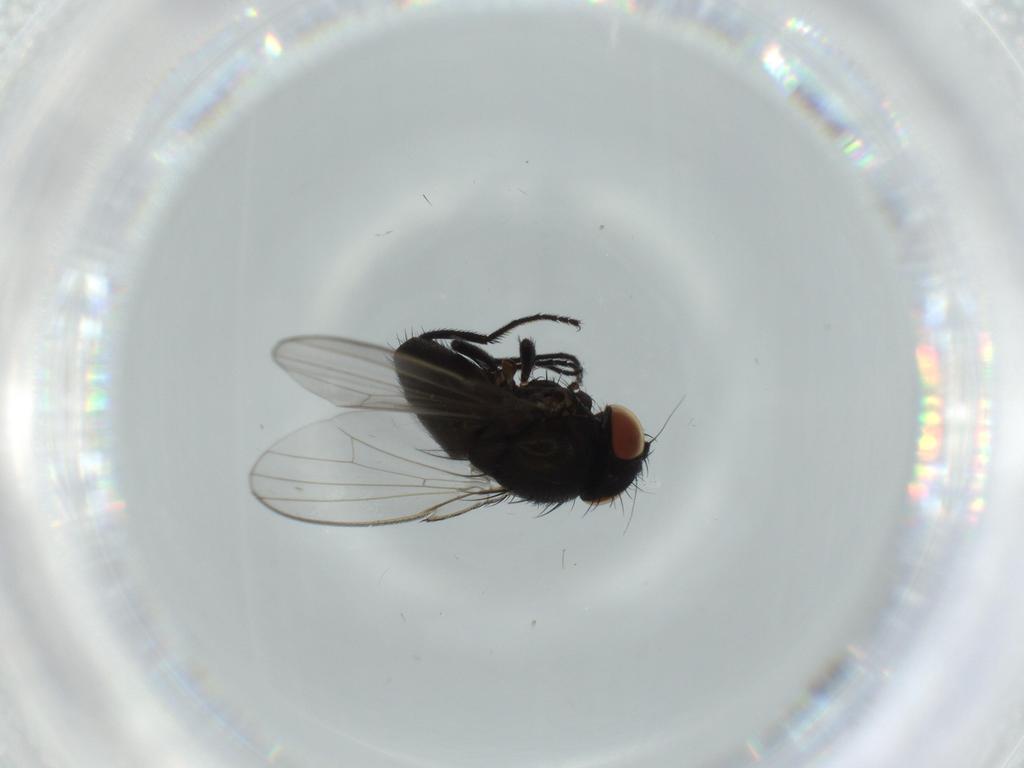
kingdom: Animalia
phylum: Arthropoda
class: Insecta
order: Diptera
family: Milichiidae
